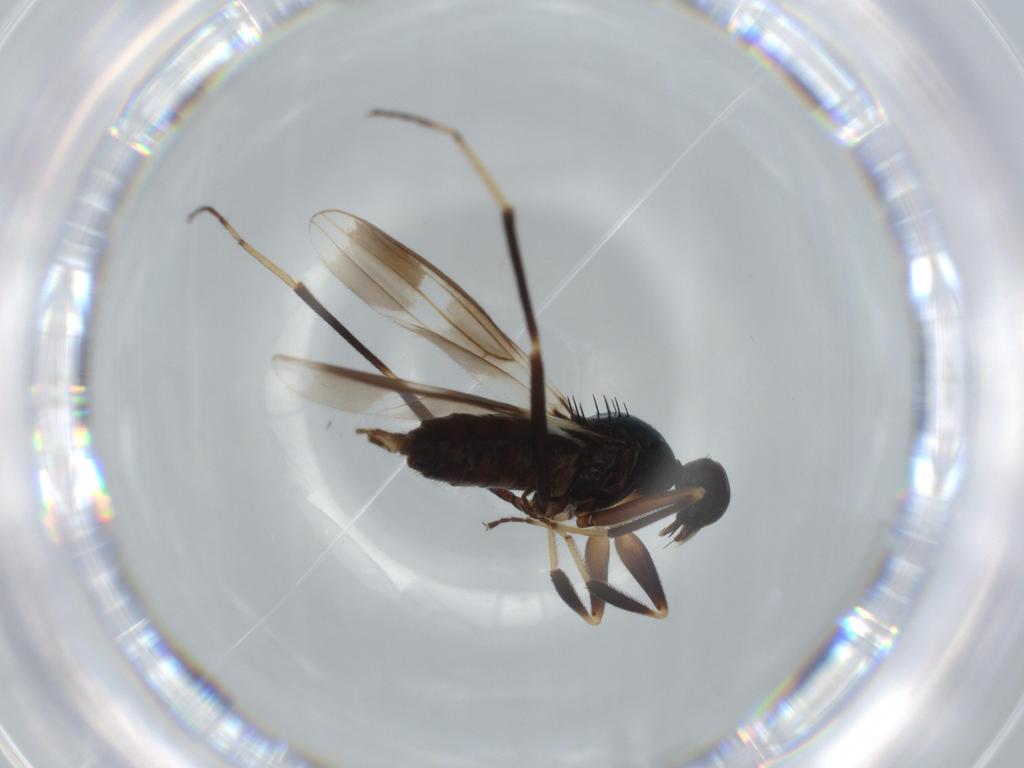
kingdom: Animalia
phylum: Arthropoda
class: Insecta
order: Diptera
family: Hybotidae
